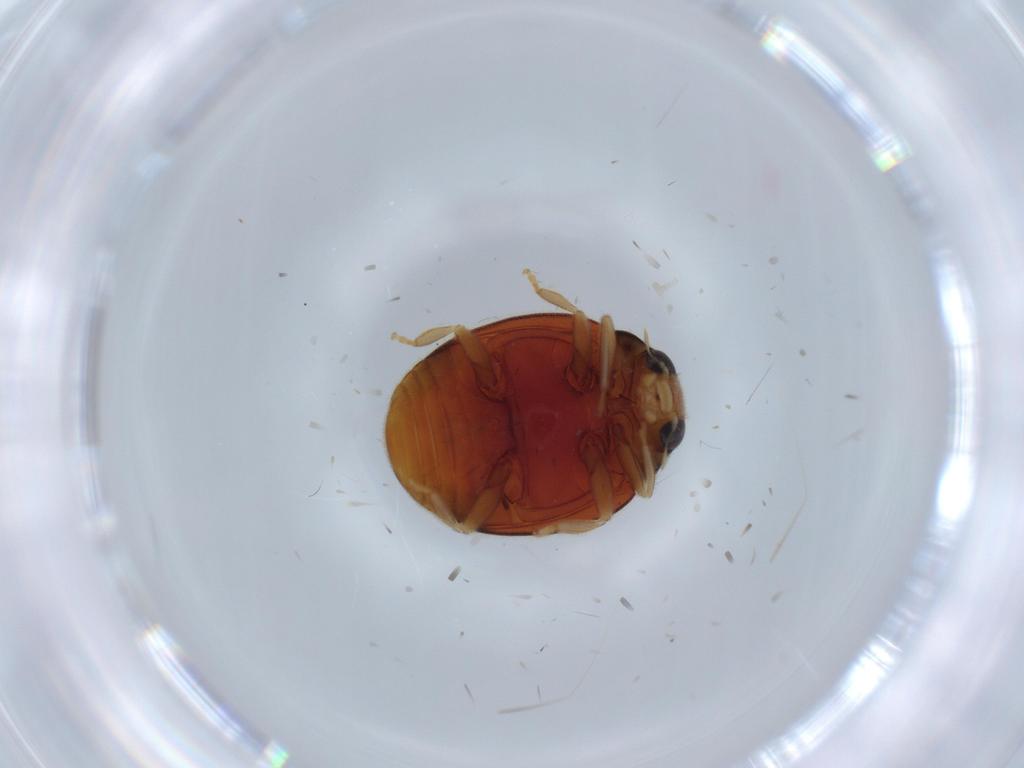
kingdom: Animalia
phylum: Arthropoda
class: Insecta
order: Coleoptera
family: Coccinellidae
